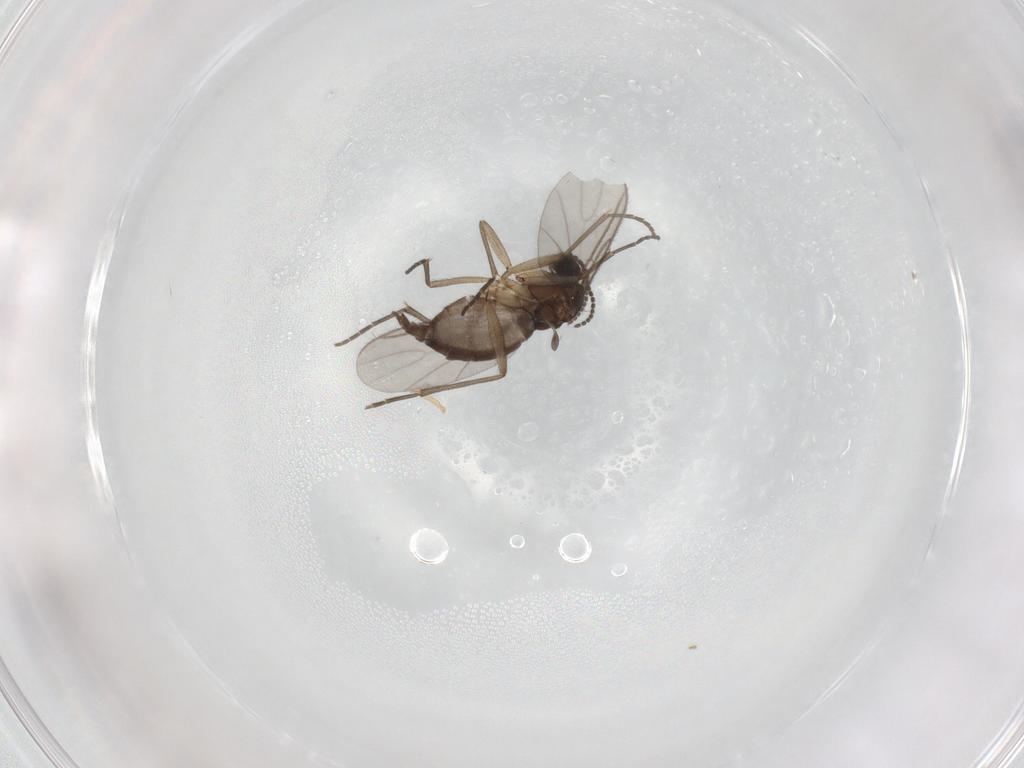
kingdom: Animalia
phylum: Arthropoda
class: Insecta
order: Diptera
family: Sciaridae
